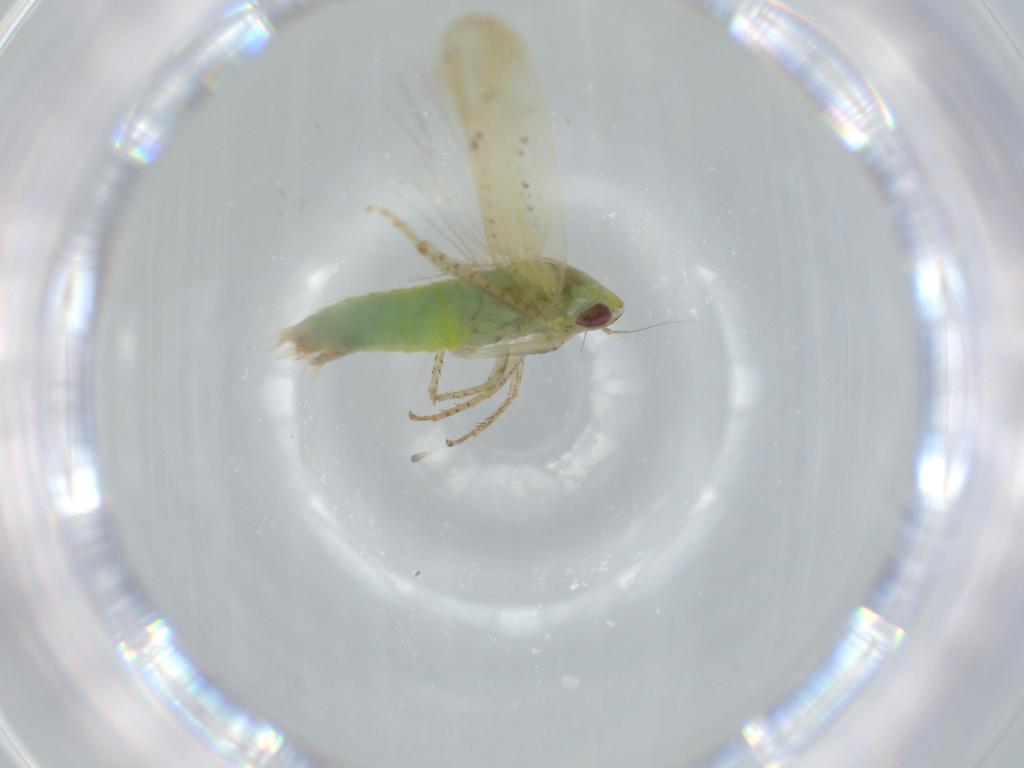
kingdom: Animalia
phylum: Arthropoda
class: Insecta
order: Hemiptera
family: Cicadellidae
